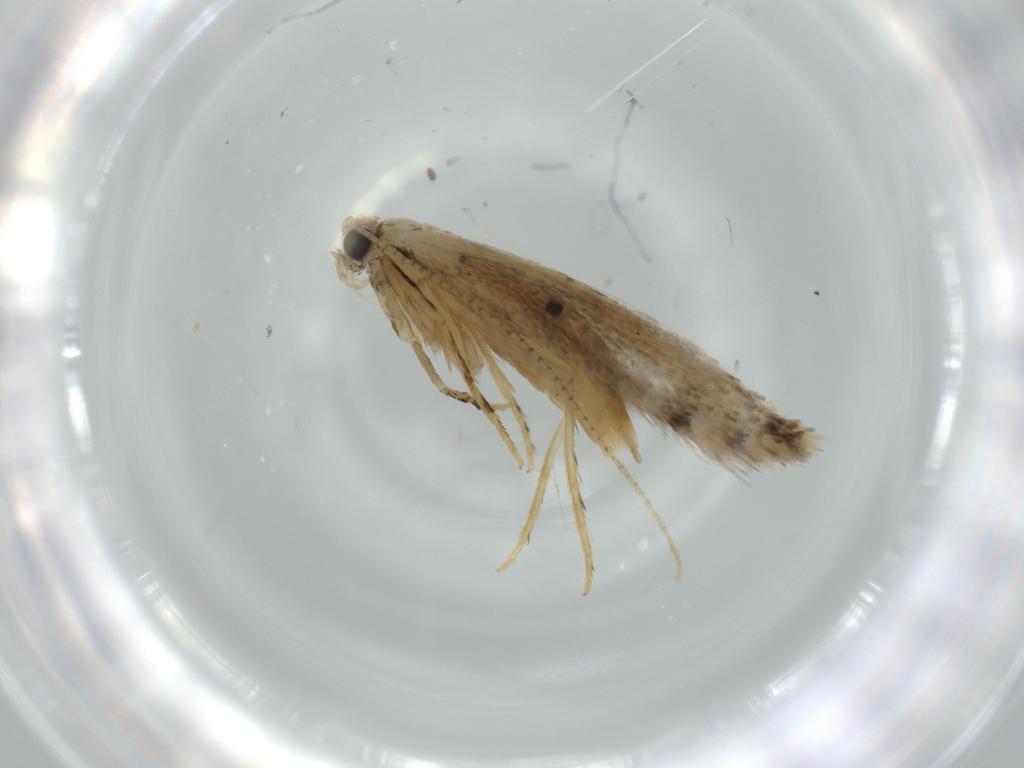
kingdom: Animalia
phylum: Arthropoda
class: Insecta
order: Lepidoptera
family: Tineidae
